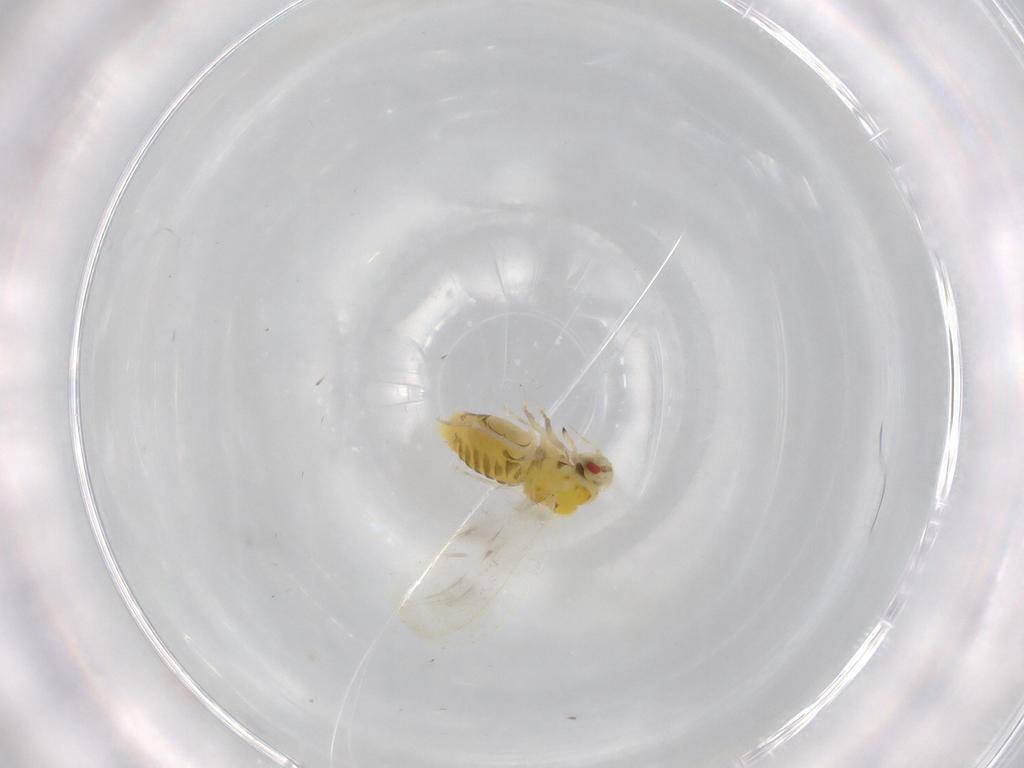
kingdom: Animalia
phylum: Arthropoda
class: Insecta
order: Hemiptera
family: Aleyrodidae
